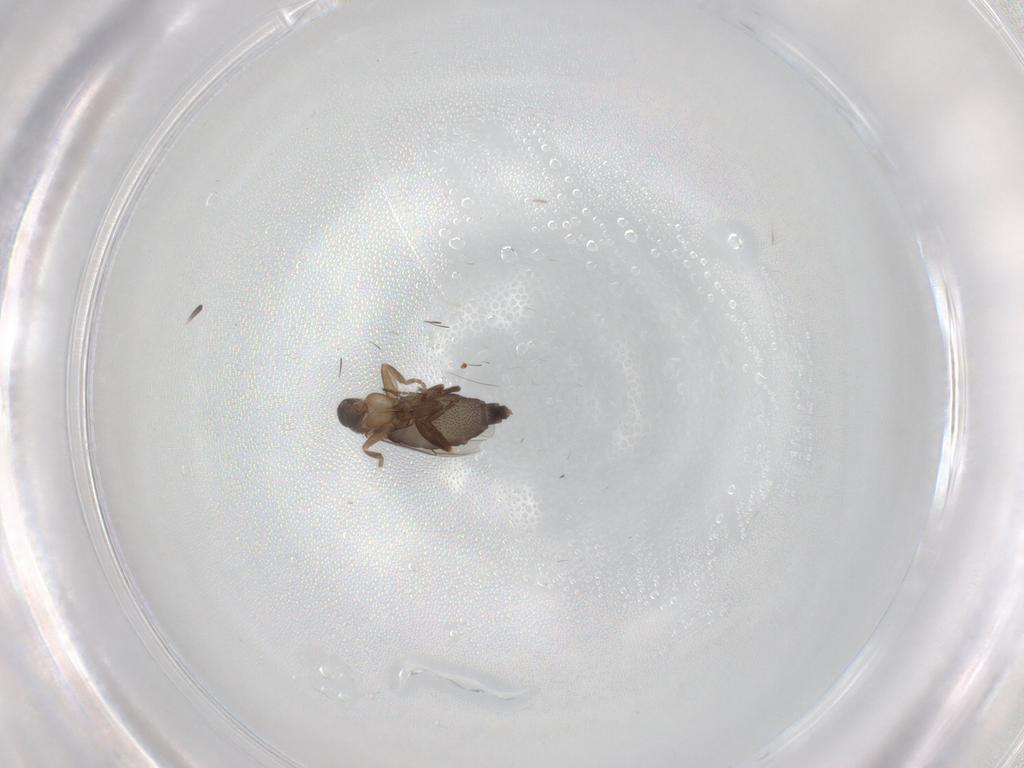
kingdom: Animalia
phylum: Arthropoda
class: Insecta
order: Diptera
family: Phoridae
